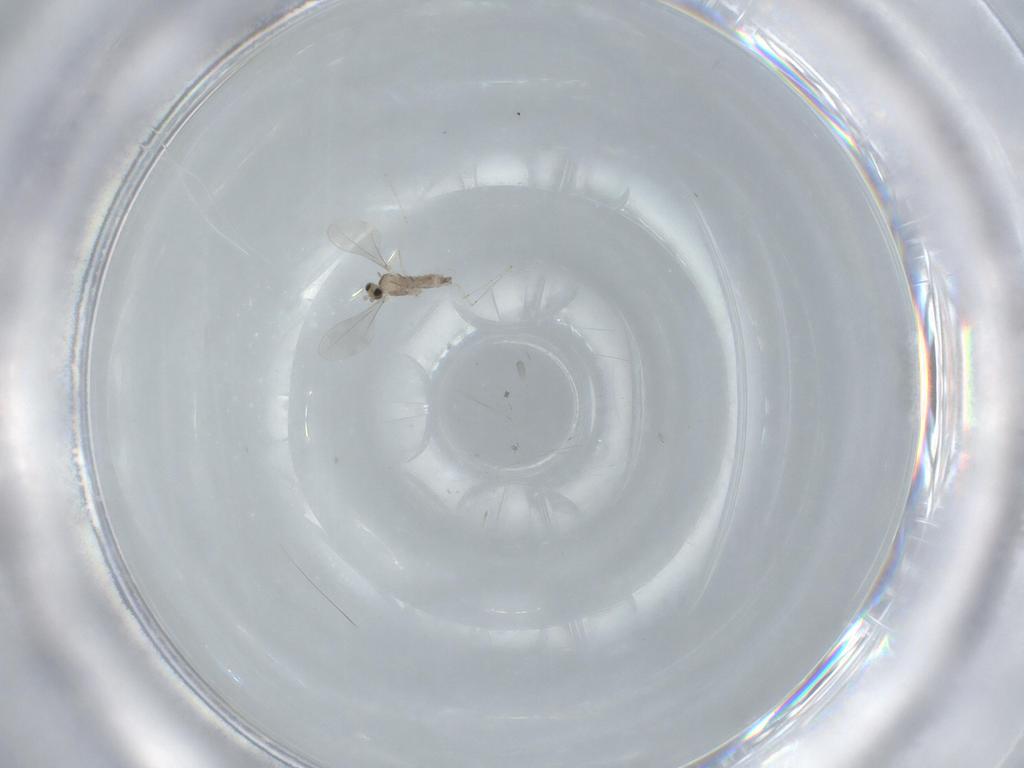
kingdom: Animalia
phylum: Arthropoda
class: Insecta
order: Diptera
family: Cecidomyiidae
